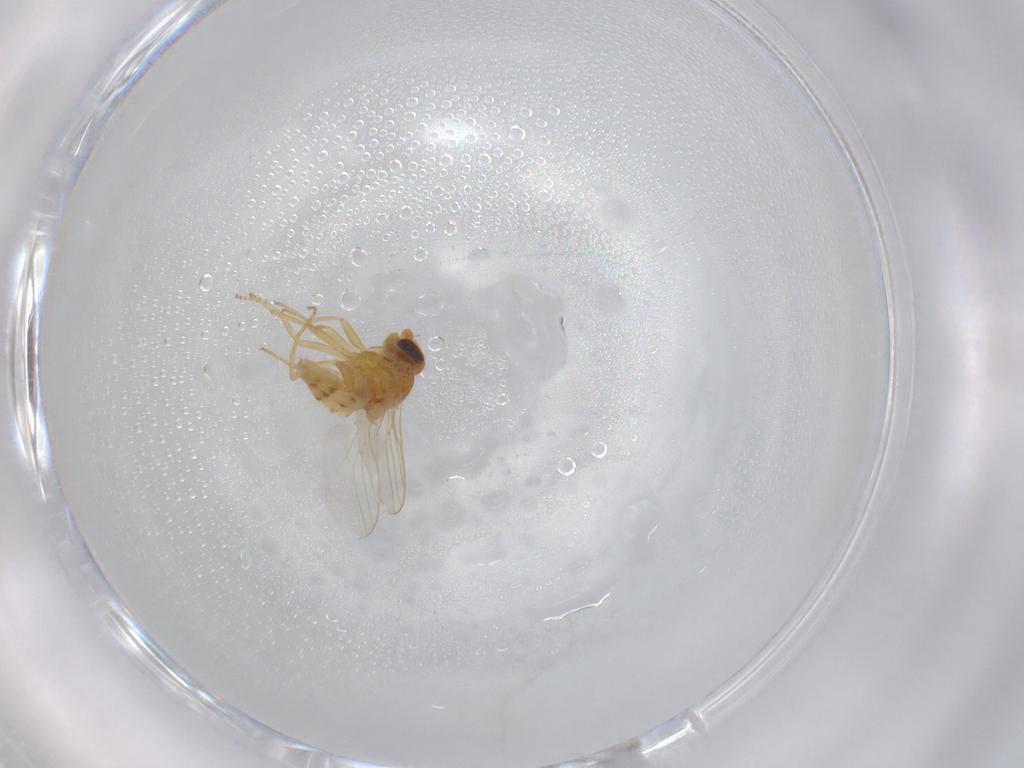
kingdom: Animalia
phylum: Arthropoda
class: Insecta
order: Diptera
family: Chloropidae
